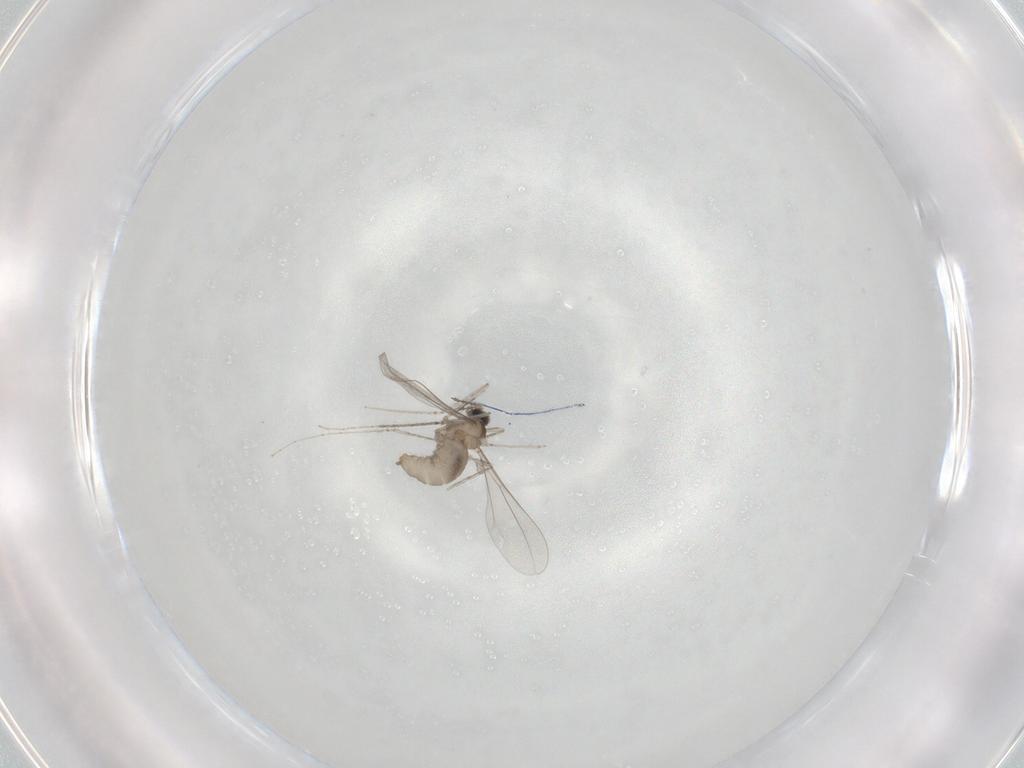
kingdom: Animalia
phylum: Arthropoda
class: Insecta
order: Diptera
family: Cecidomyiidae
